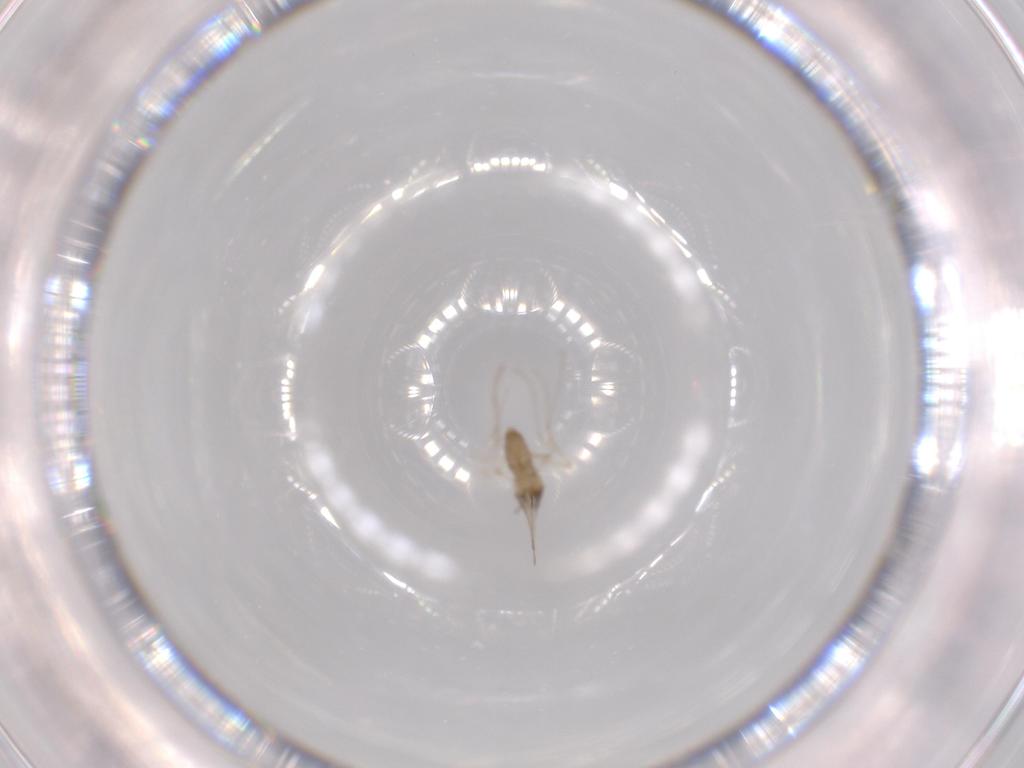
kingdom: Animalia
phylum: Arthropoda
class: Insecta
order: Diptera
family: Cecidomyiidae
